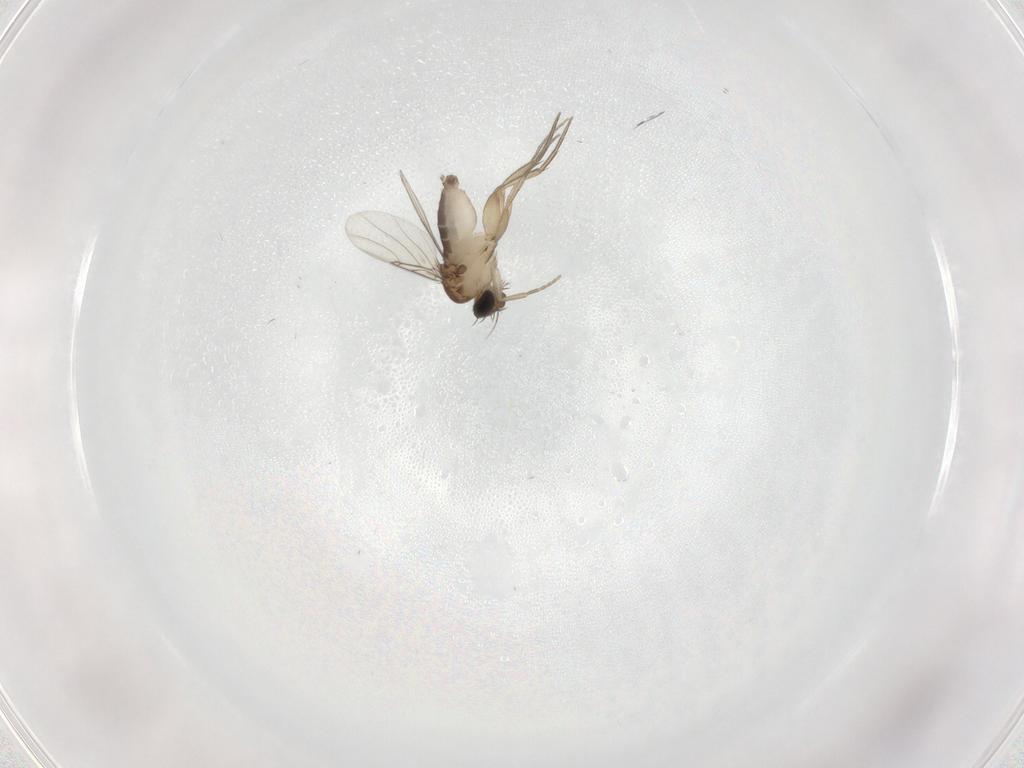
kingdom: Animalia
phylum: Arthropoda
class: Insecta
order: Diptera
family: Phoridae
